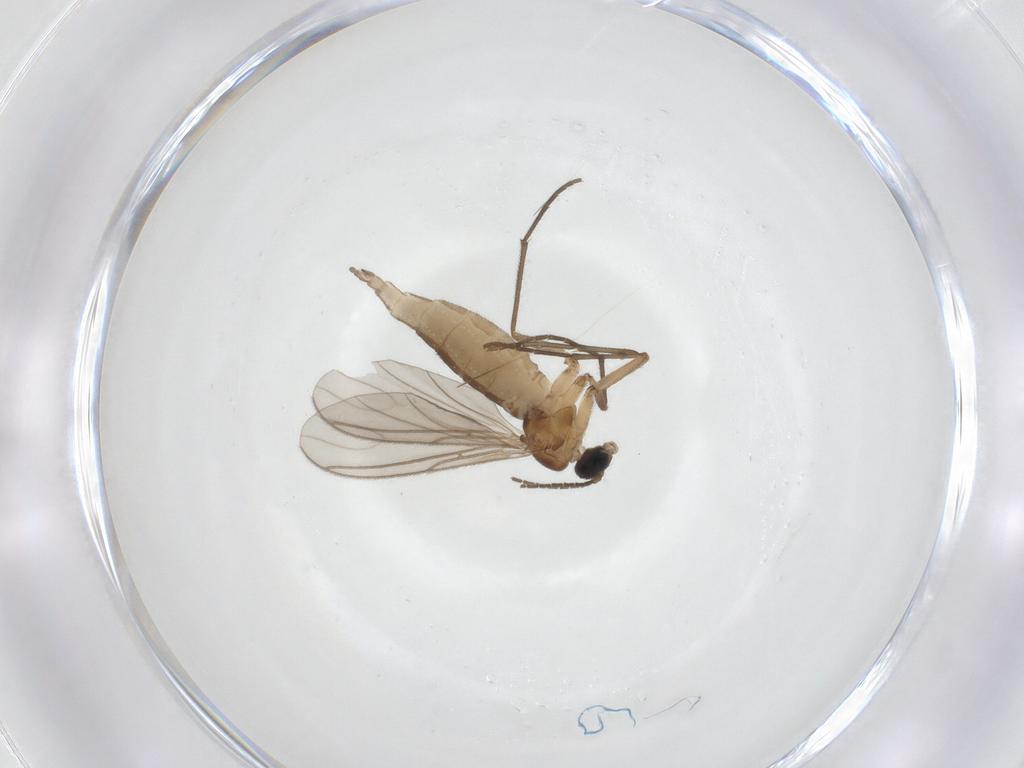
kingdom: Animalia
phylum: Arthropoda
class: Insecta
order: Diptera
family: Sciaridae
